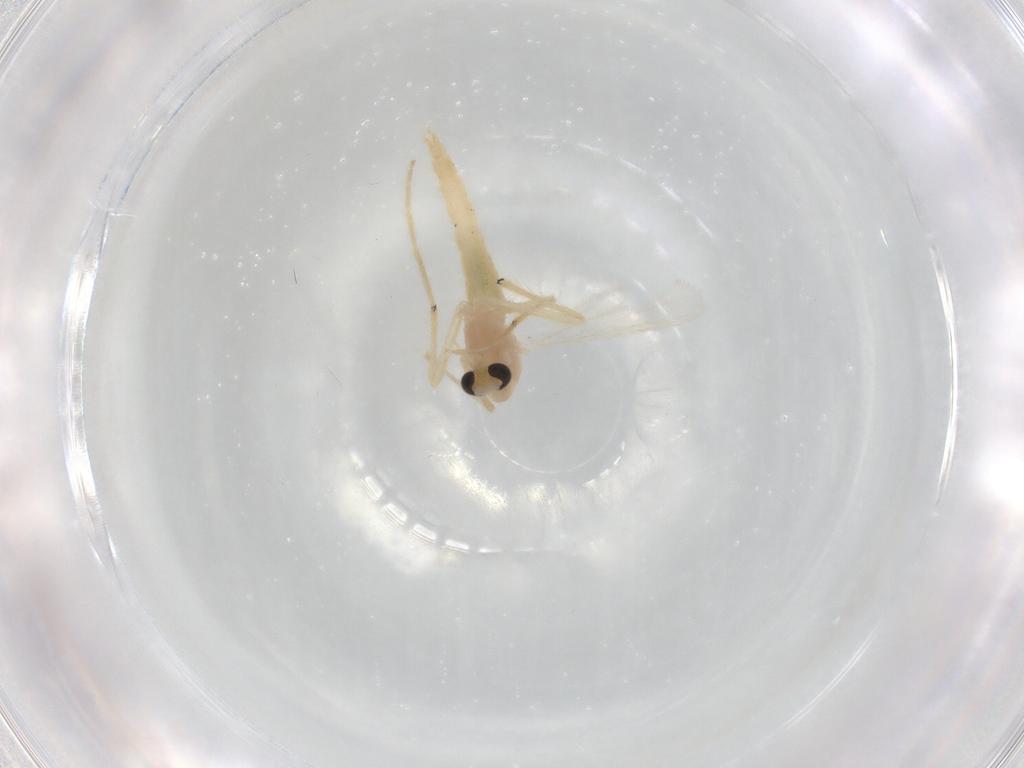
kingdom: Animalia
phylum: Arthropoda
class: Insecta
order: Diptera
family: Chironomidae
